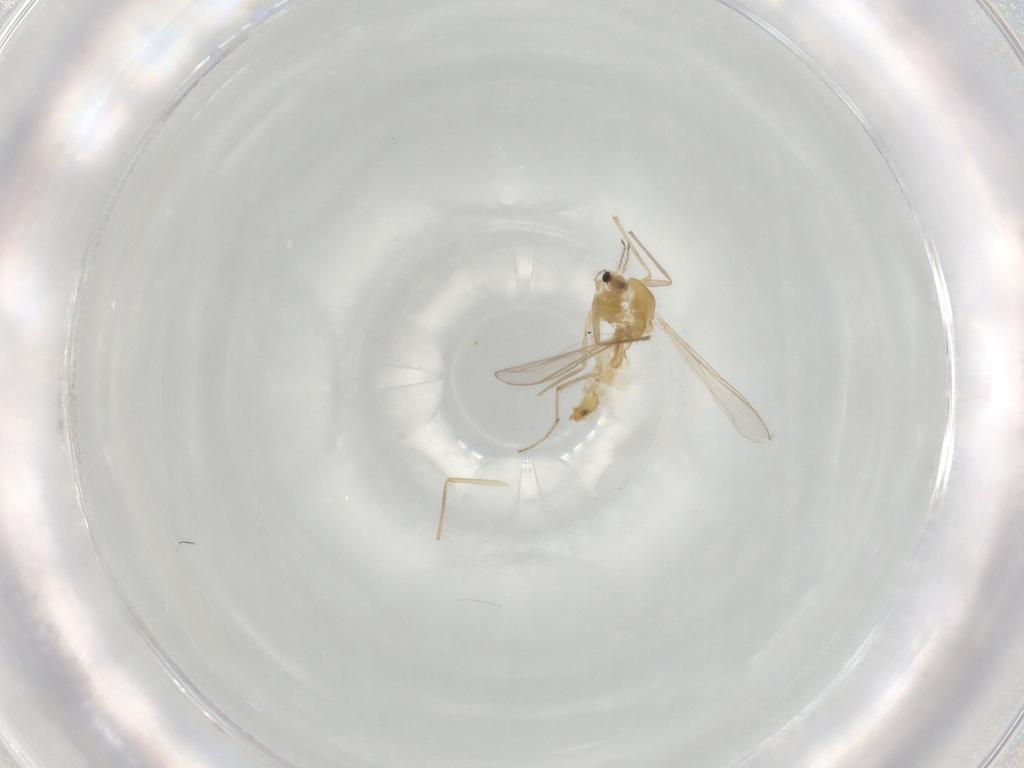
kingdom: Animalia
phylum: Arthropoda
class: Insecta
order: Diptera
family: Chironomidae
